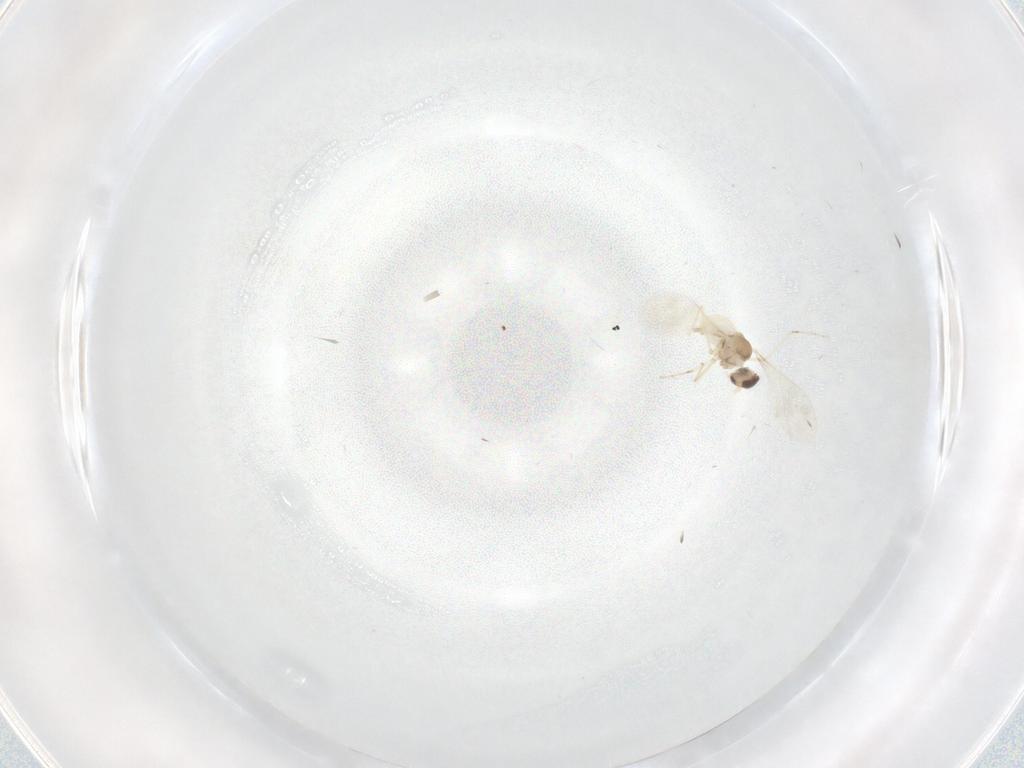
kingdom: Animalia
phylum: Arthropoda
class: Insecta
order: Diptera
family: Cecidomyiidae
